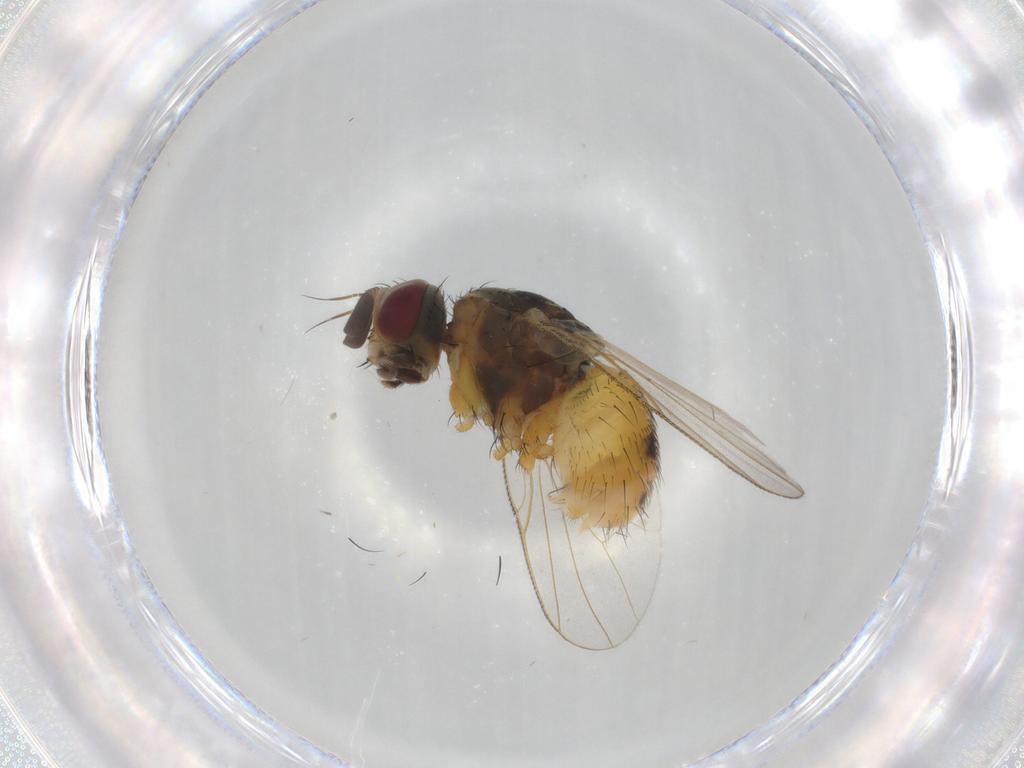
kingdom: Animalia
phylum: Arthropoda
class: Insecta
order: Diptera
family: Muscidae
